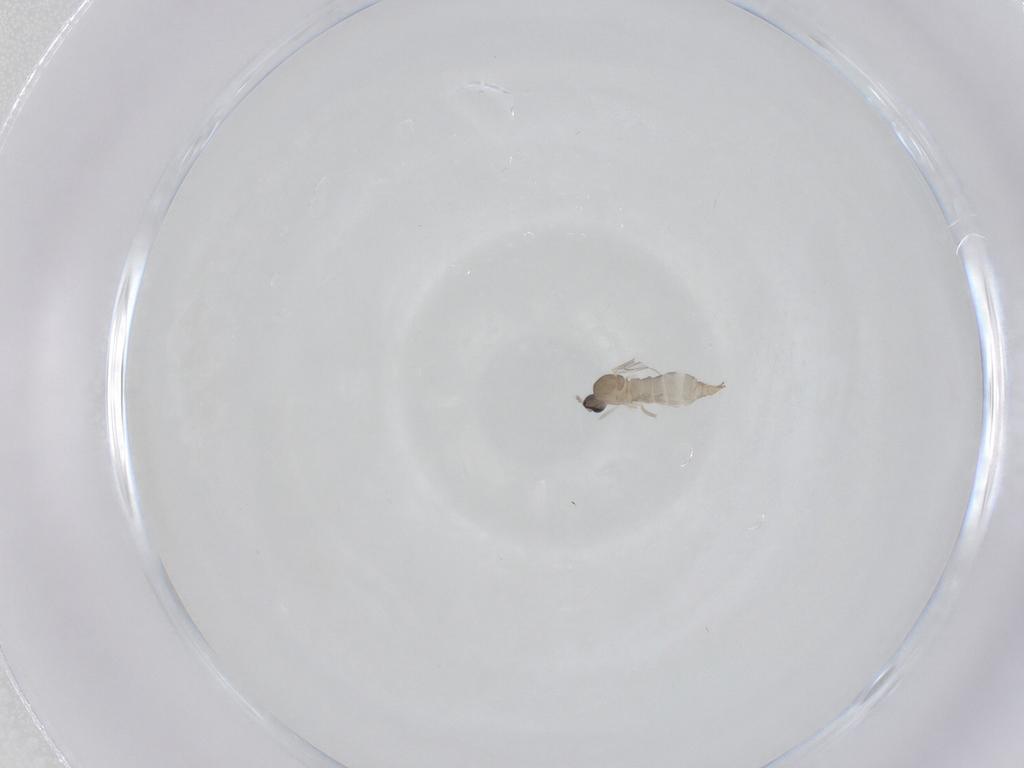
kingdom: Animalia
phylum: Arthropoda
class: Insecta
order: Diptera
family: Cecidomyiidae
